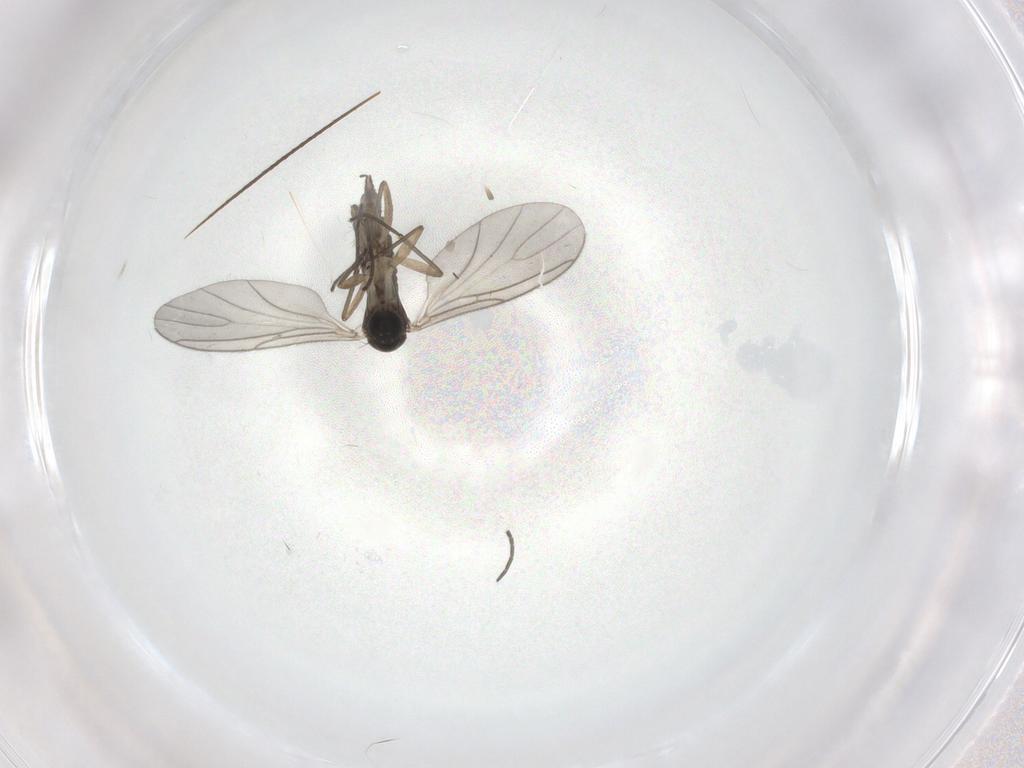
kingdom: Animalia
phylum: Arthropoda
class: Insecta
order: Diptera
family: Sciaridae
